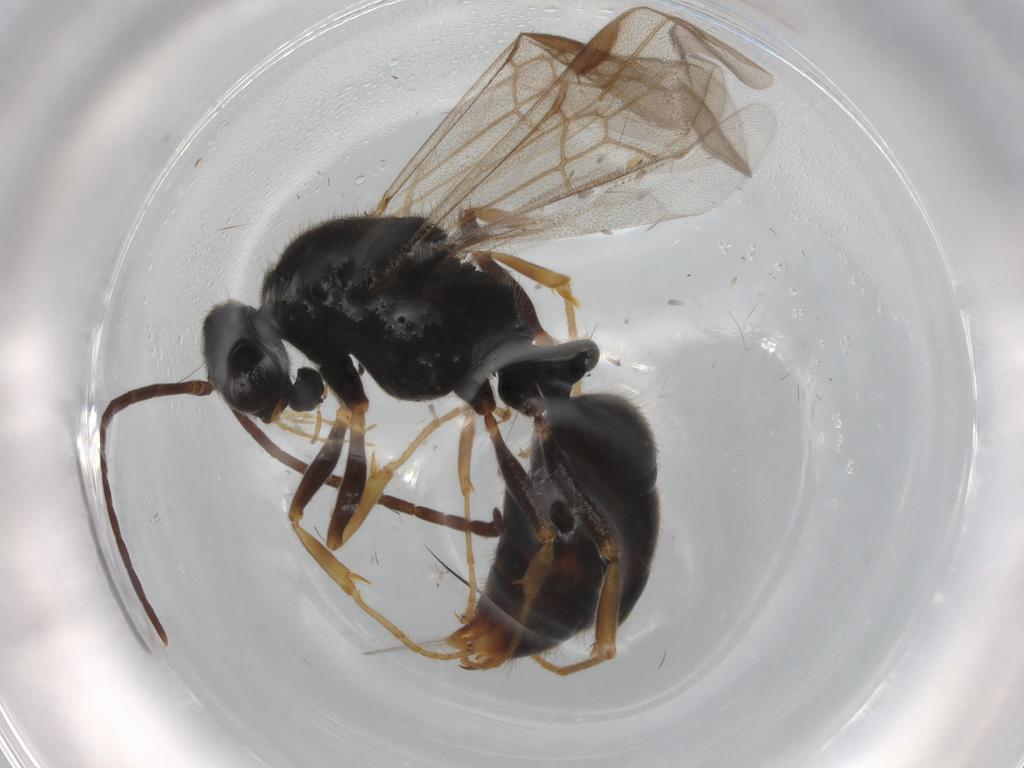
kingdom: Animalia
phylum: Arthropoda
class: Insecta
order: Hymenoptera
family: Formicidae
